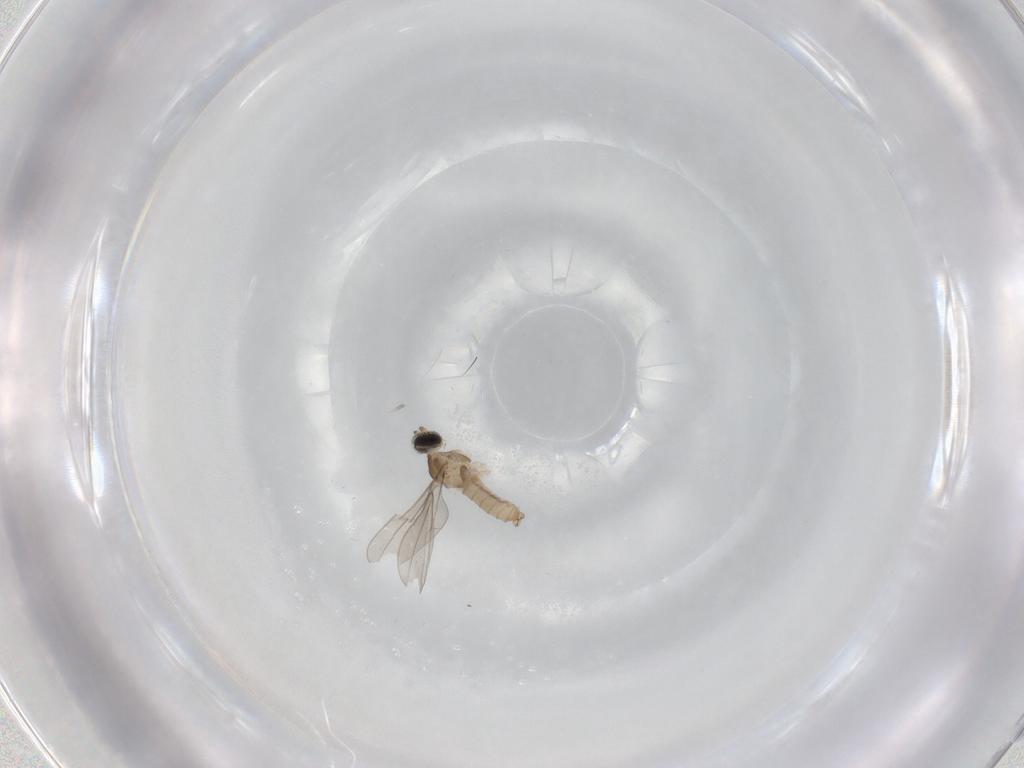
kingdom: Animalia
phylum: Arthropoda
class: Insecta
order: Diptera
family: Cecidomyiidae
